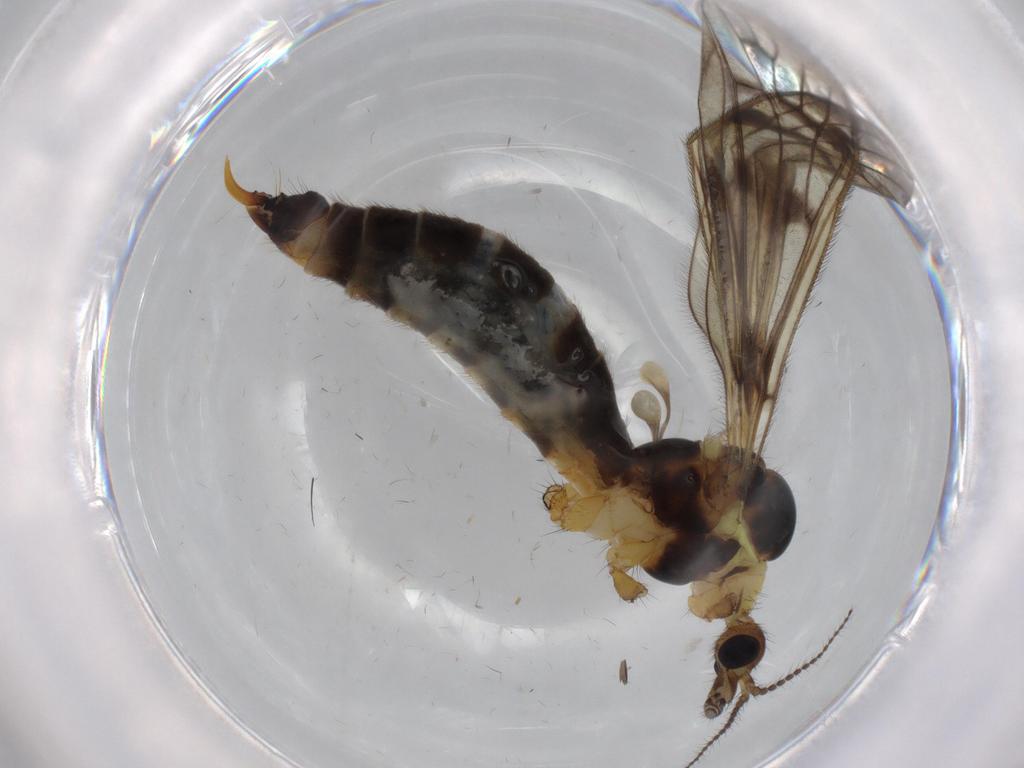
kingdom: Animalia
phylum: Arthropoda
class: Insecta
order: Diptera
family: Limoniidae
